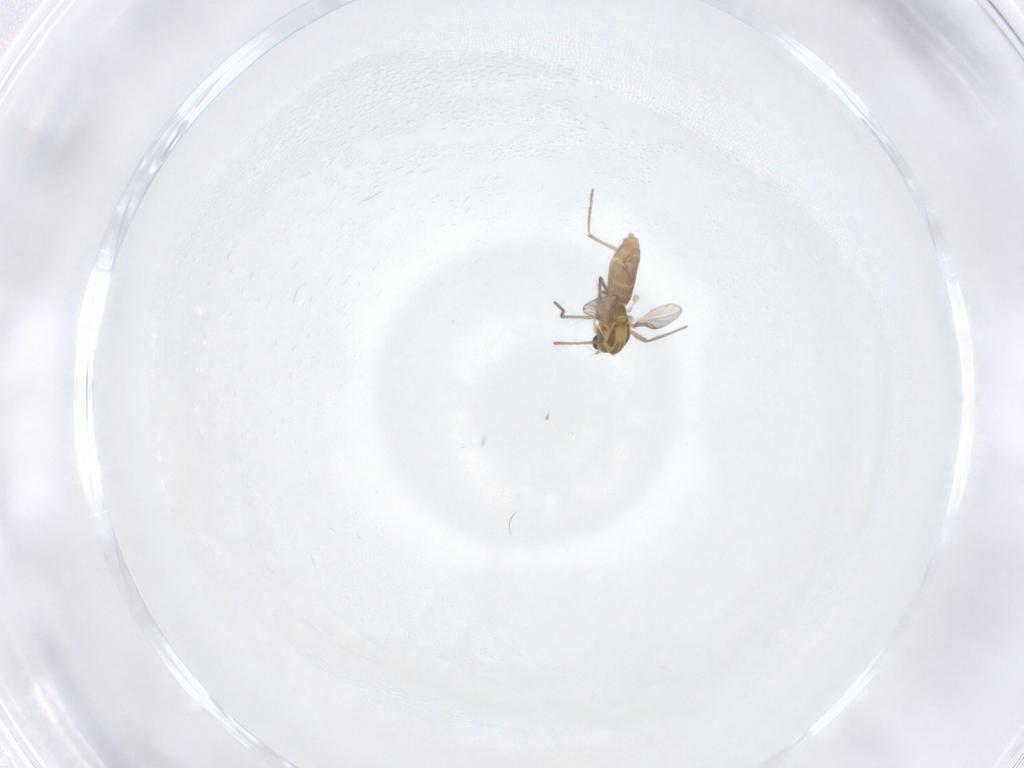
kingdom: Animalia
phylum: Arthropoda
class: Insecta
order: Diptera
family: Chironomidae
